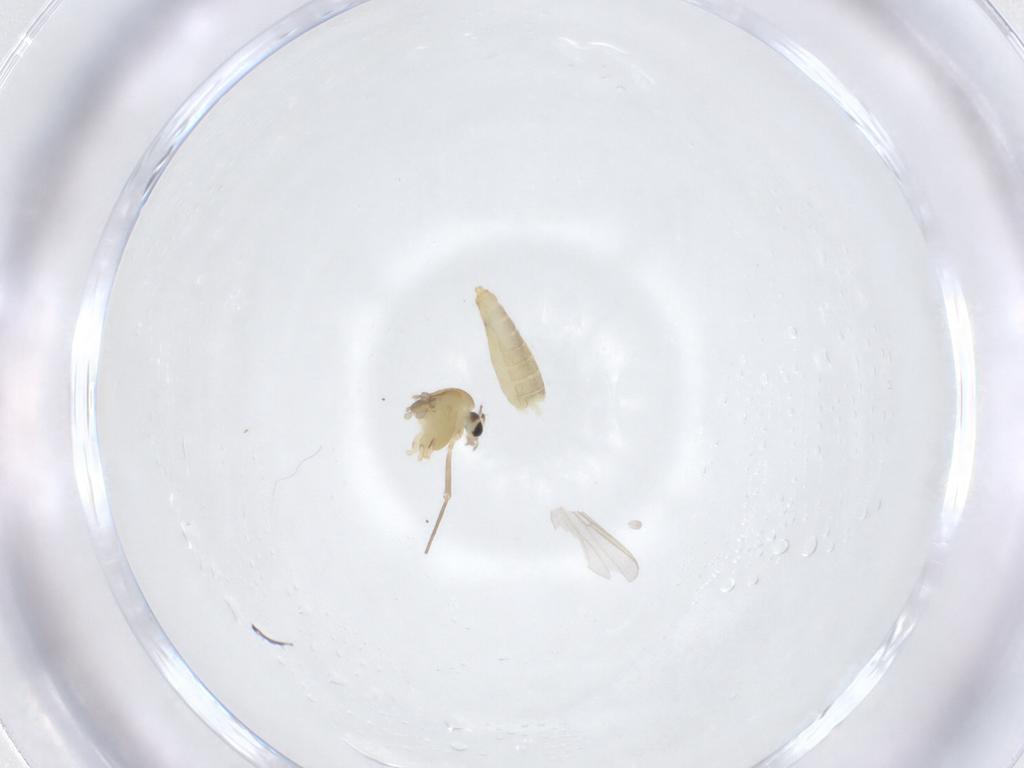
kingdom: Animalia
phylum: Arthropoda
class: Insecta
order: Diptera
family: Chironomidae
